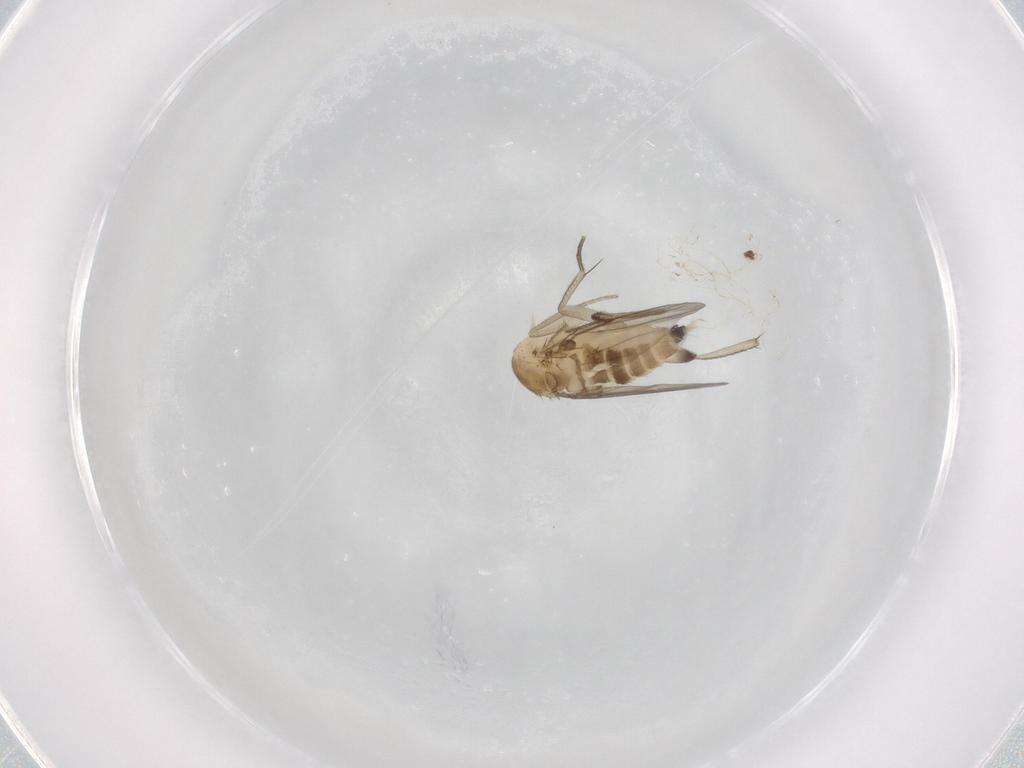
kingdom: Animalia
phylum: Arthropoda
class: Insecta
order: Diptera
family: Phoridae
